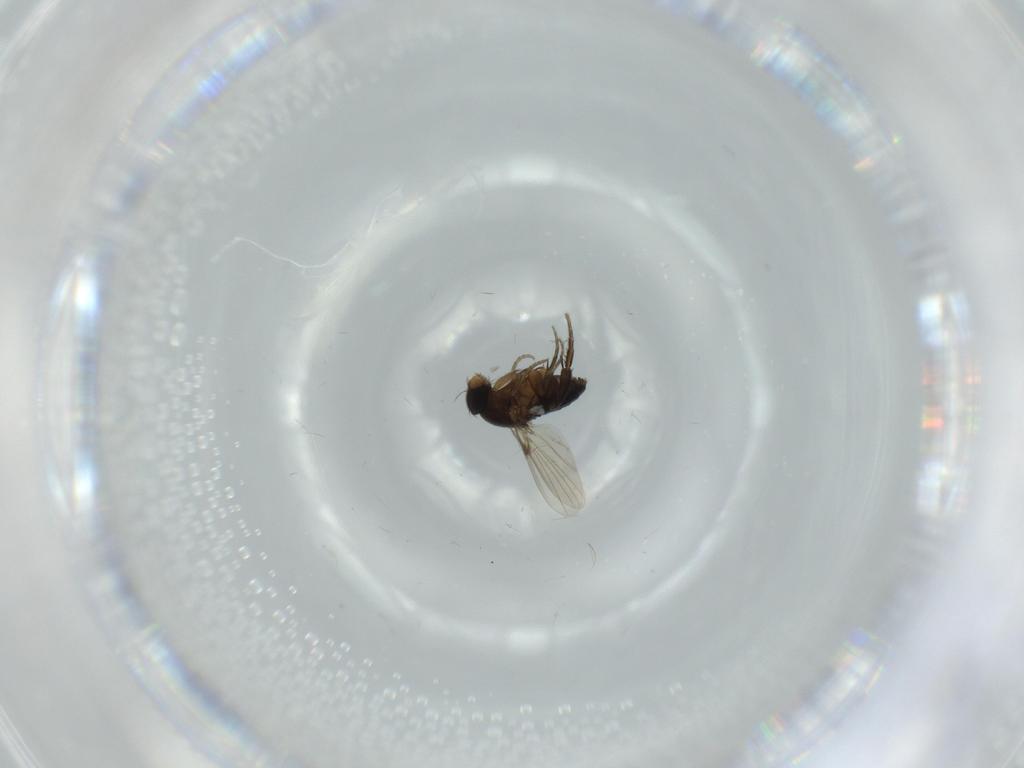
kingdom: Animalia
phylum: Arthropoda
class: Insecta
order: Diptera
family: Phoridae
